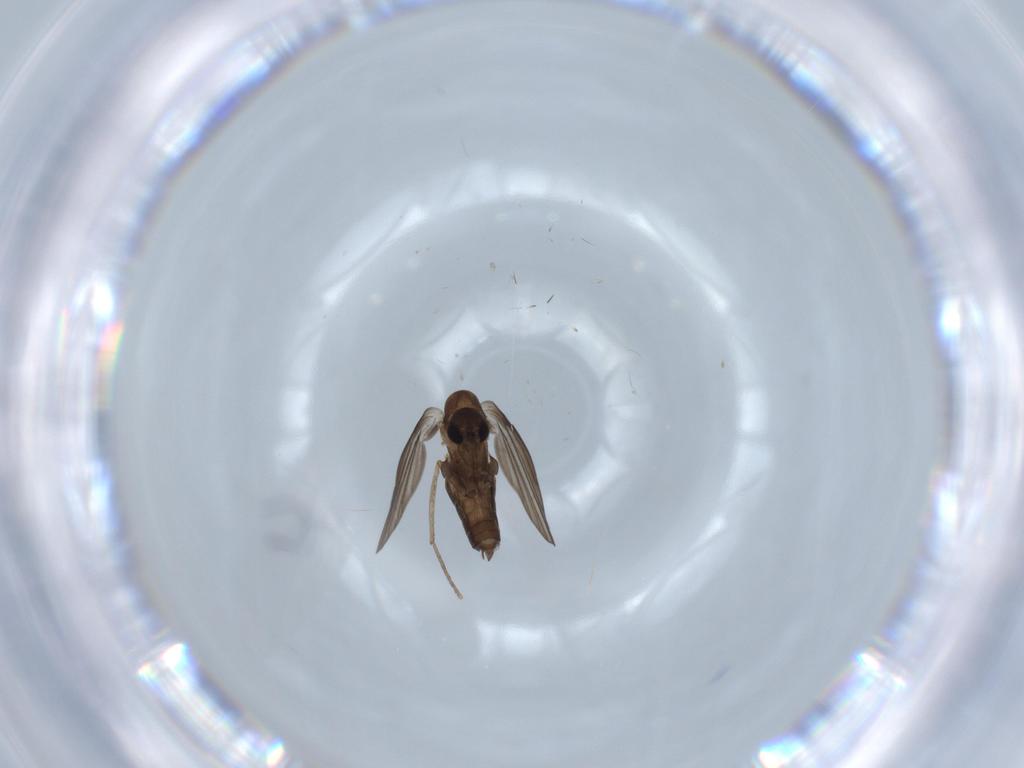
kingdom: Animalia
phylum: Arthropoda
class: Insecta
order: Diptera
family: Psychodidae
